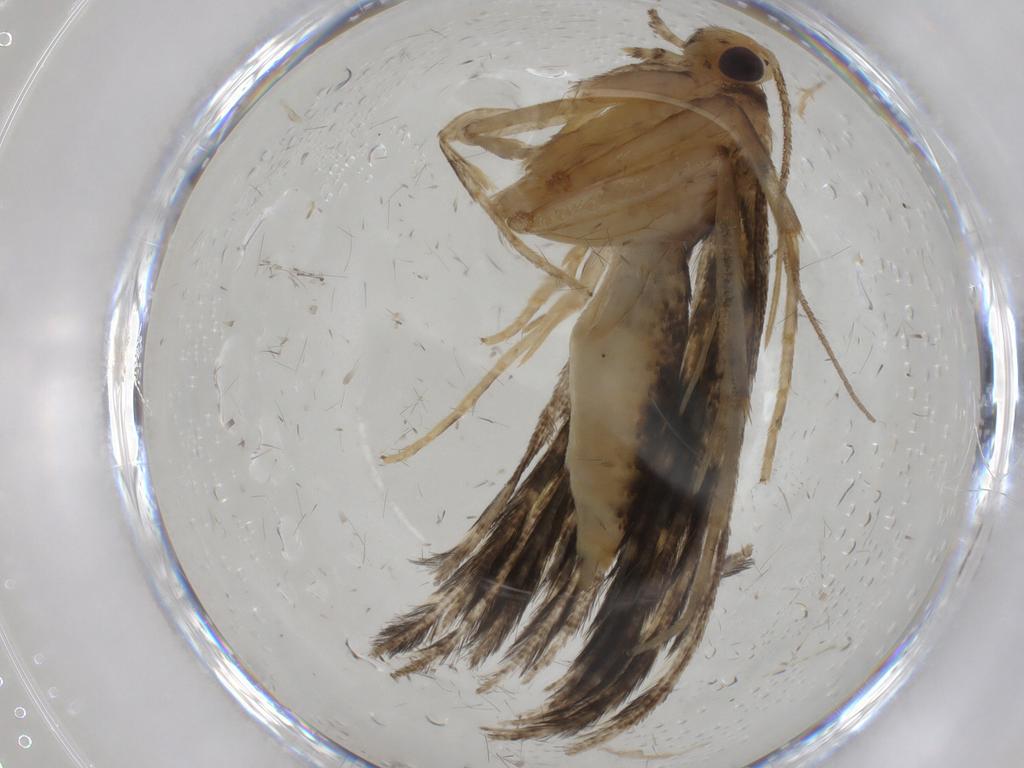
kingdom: Animalia
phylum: Arthropoda
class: Insecta
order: Lepidoptera
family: Erebidae
